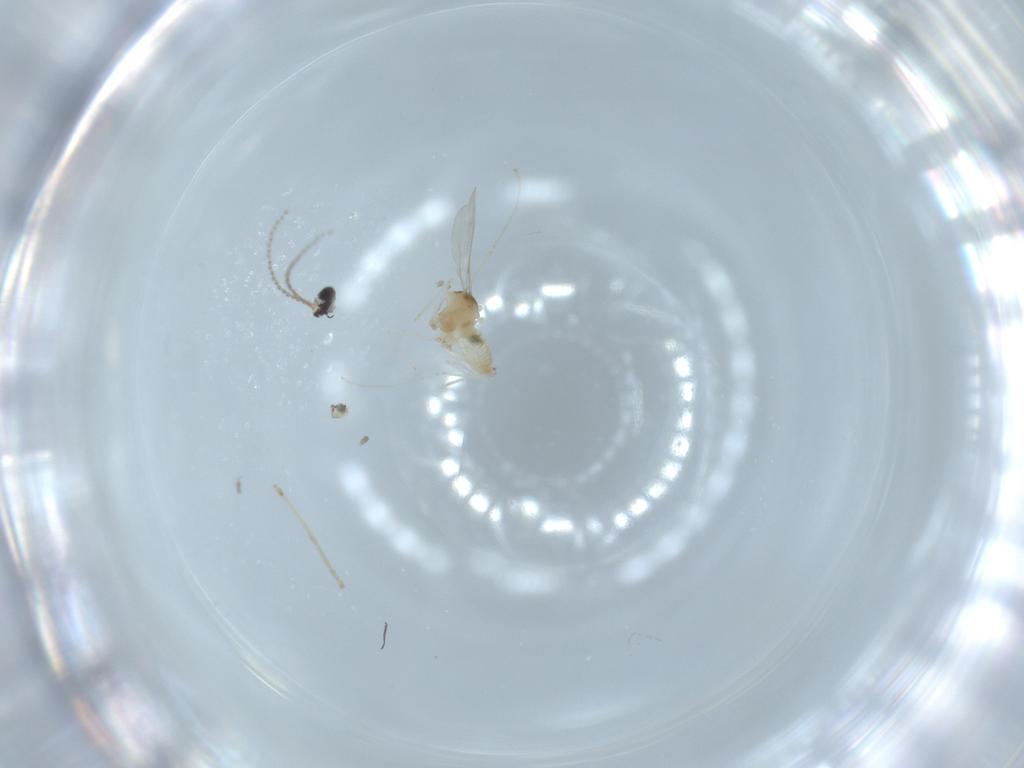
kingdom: Animalia
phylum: Arthropoda
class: Insecta
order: Diptera
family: Cecidomyiidae
